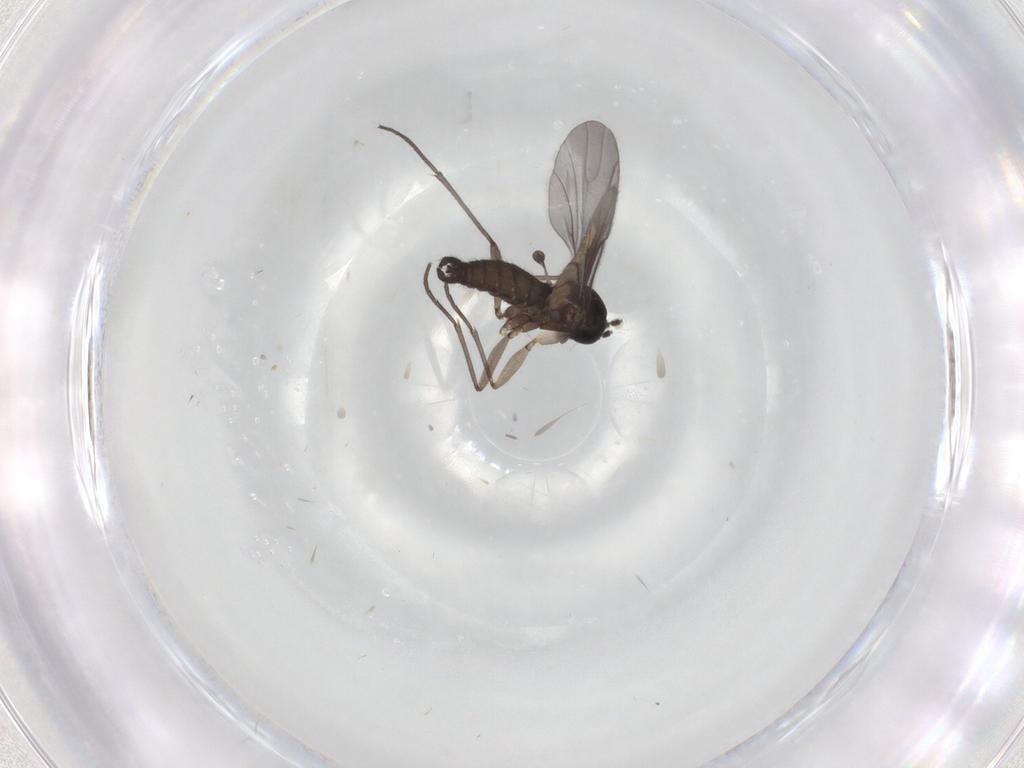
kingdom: Animalia
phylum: Arthropoda
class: Insecta
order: Diptera
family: Sciaridae
